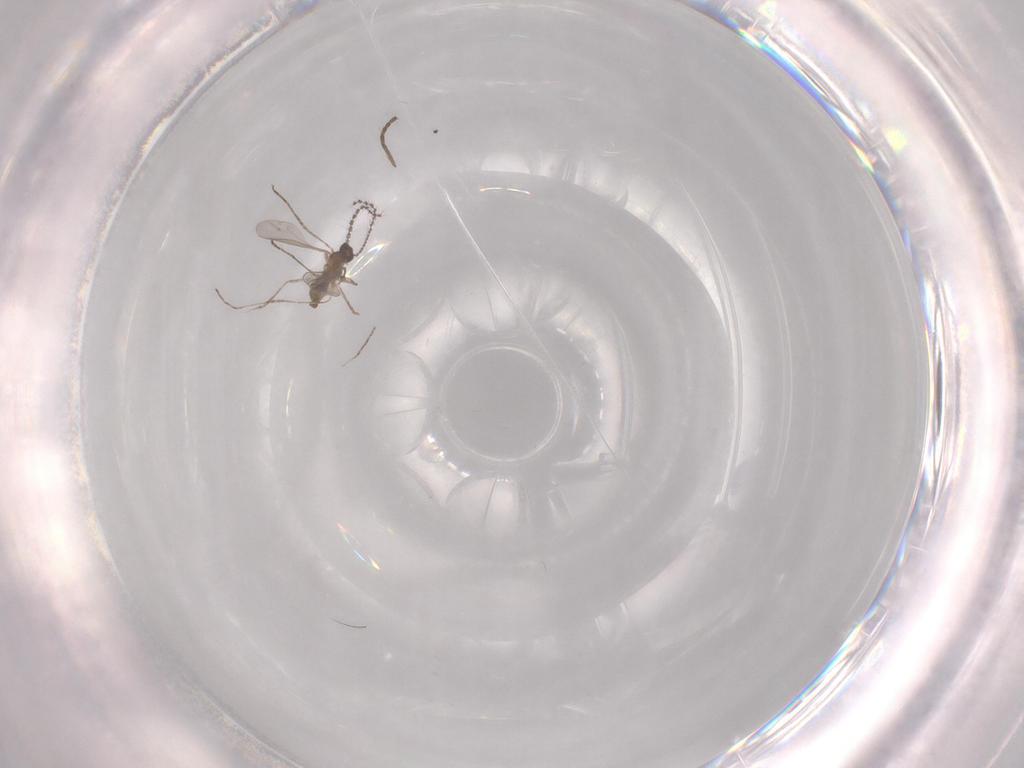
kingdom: Animalia
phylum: Arthropoda
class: Insecta
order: Diptera
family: Cecidomyiidae
